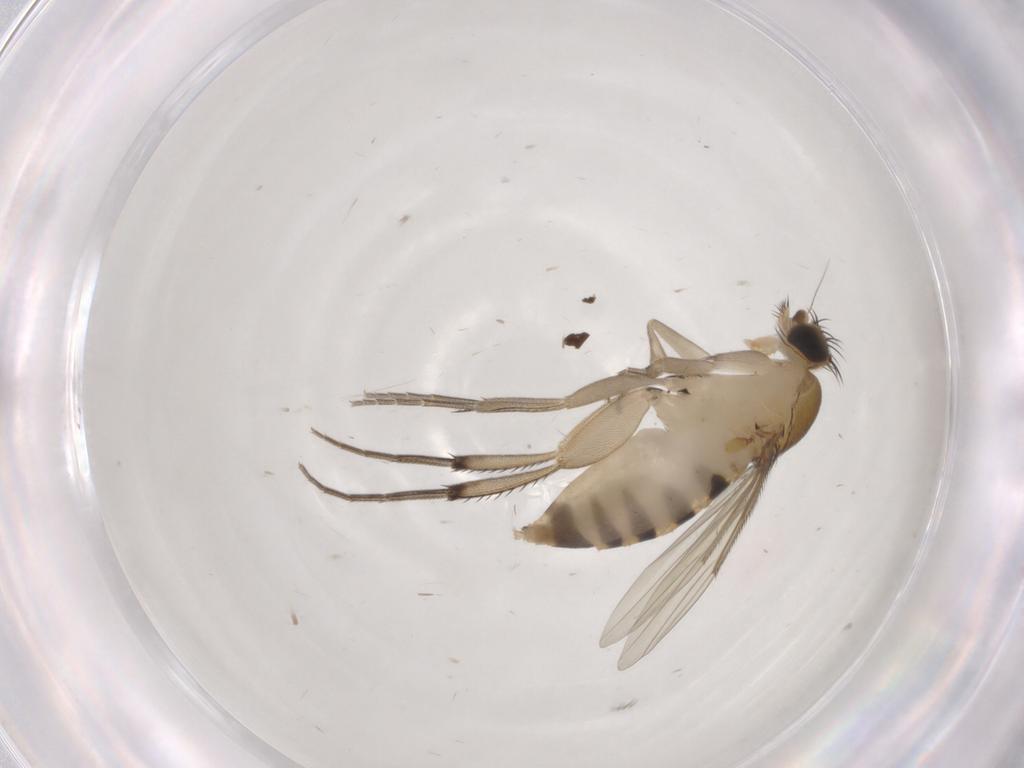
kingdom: Animalia
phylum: Arthropoda
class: Insecta
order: Diptera
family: Phoridae
